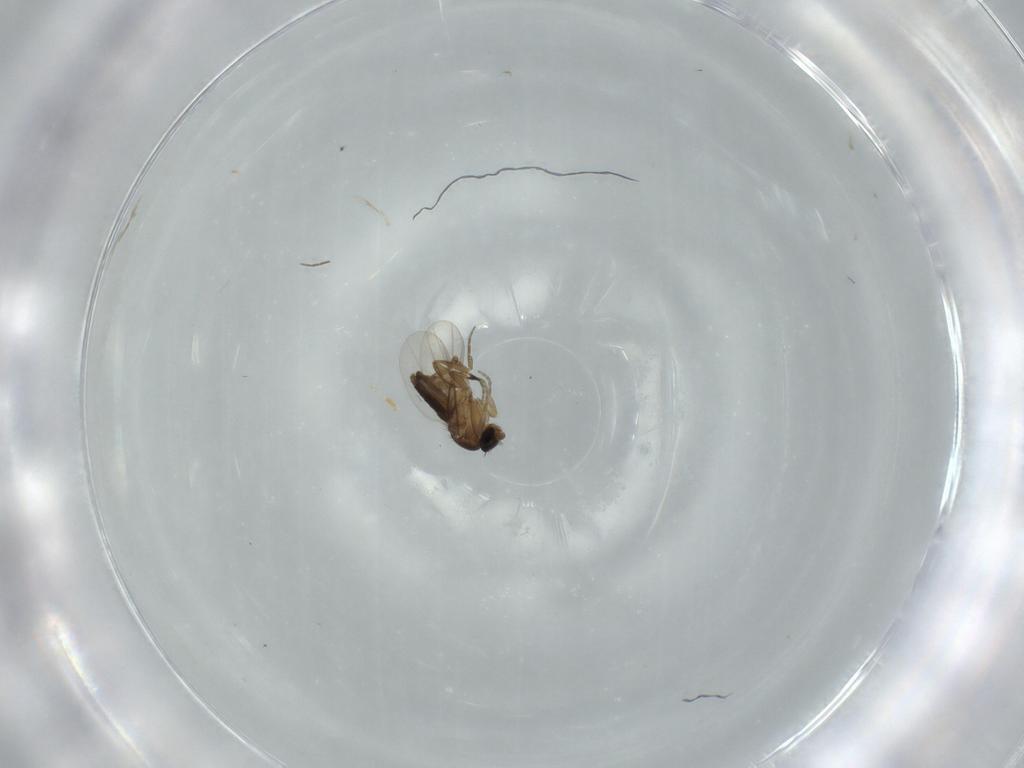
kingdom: Animalia
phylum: Arthropoda
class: Insecta
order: Diptera
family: Phoridae
